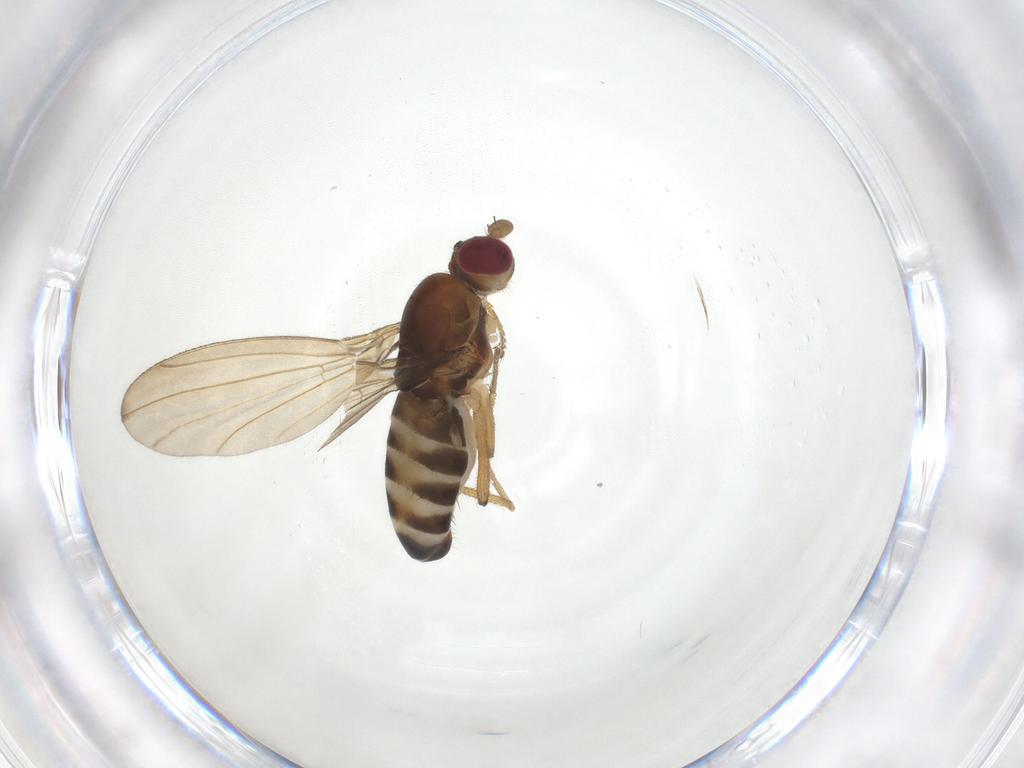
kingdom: Animalia
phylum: Arthropoda
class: Insecta
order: Diptera
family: Clusiidae
